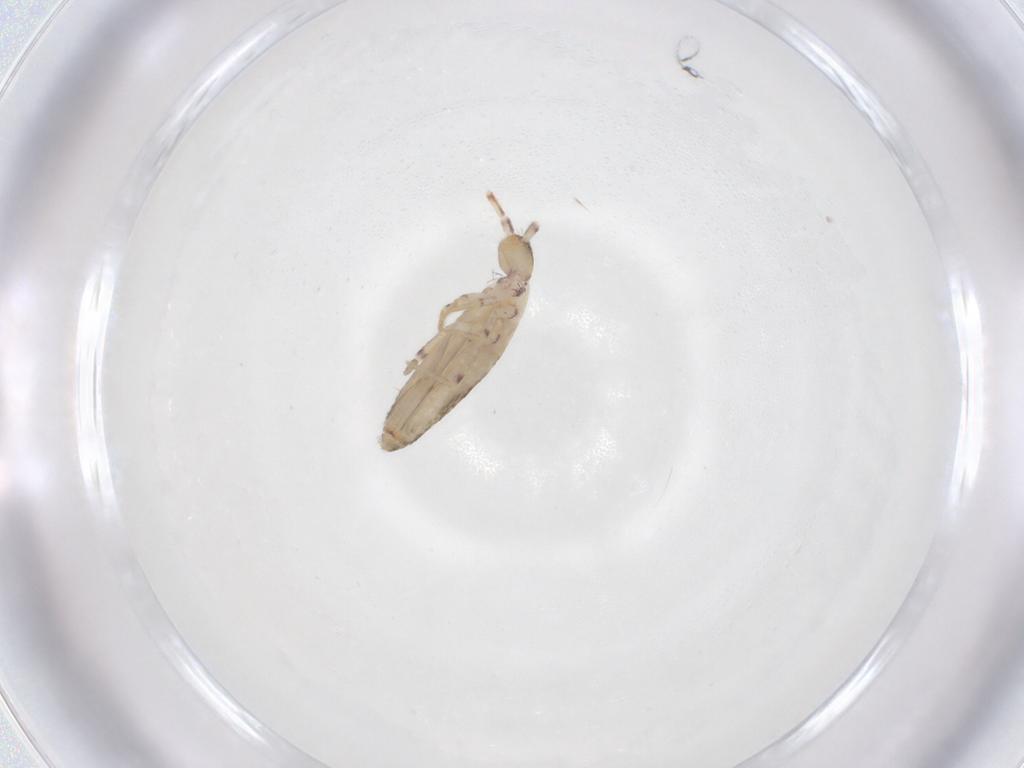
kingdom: Animalia
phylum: Arthropoda
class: Collembola
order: Entomobryomorpha
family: Entomobryidae
